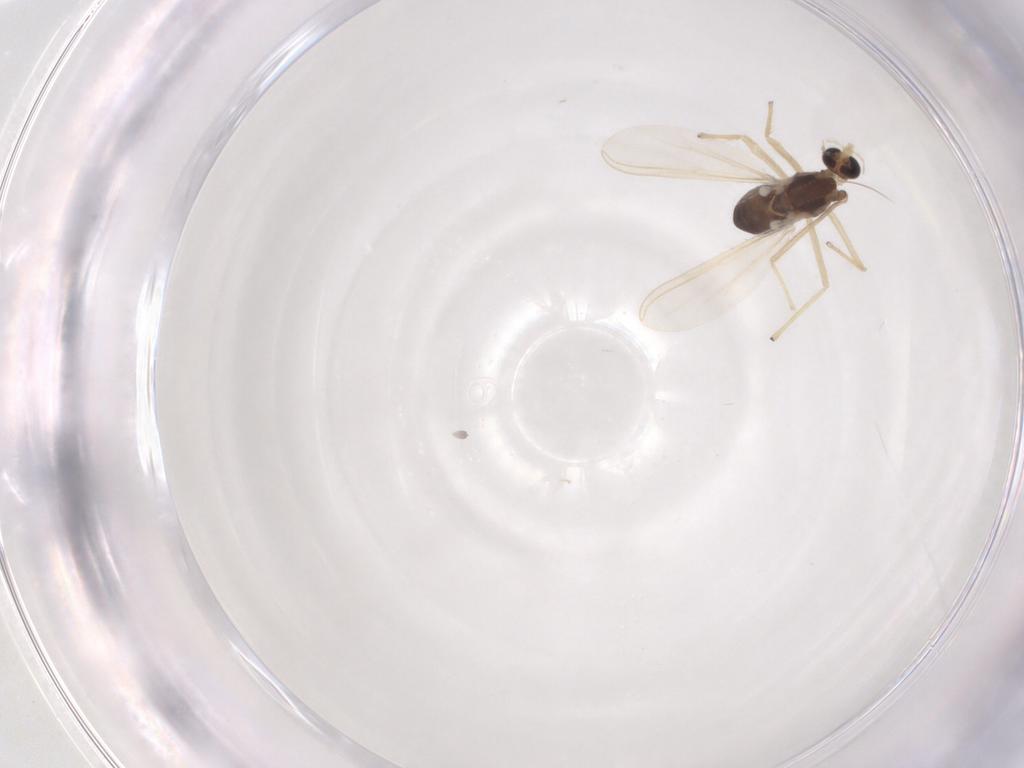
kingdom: Animalia
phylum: Arthropoda
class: Insecta
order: Diptera
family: Chironomidae
